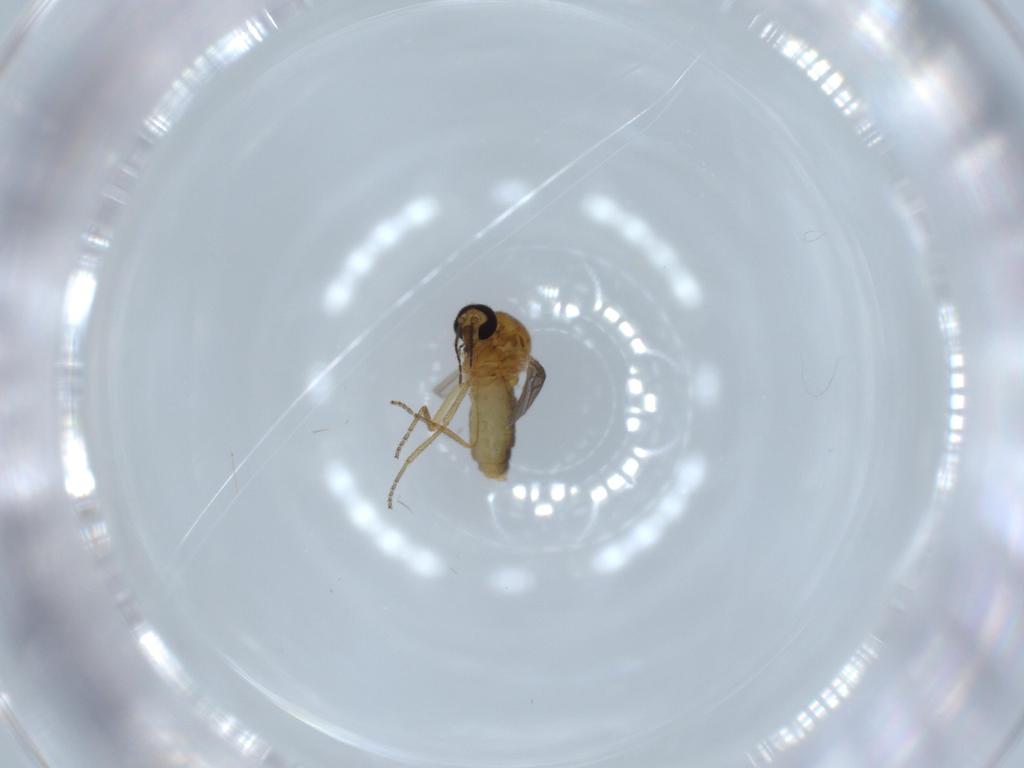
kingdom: Animalia
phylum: Arthropoda
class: Insecta
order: Diptera
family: Ceratopogonidae
